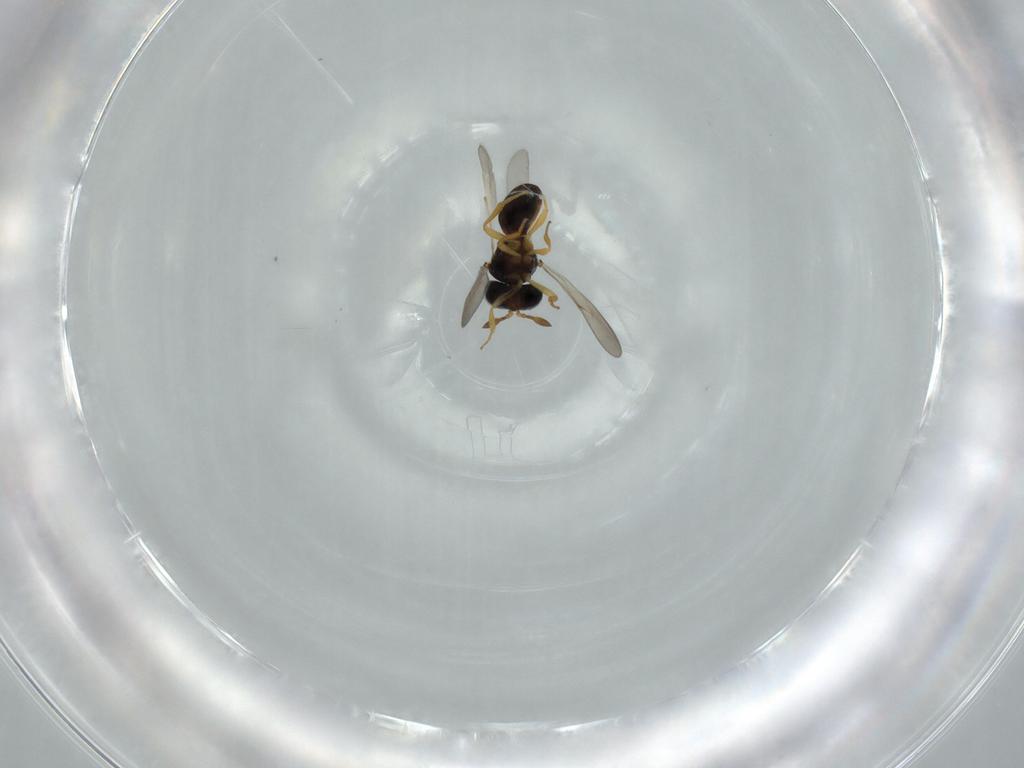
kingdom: Animalia
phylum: Arthropoda
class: Insecta
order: Hymenoptera
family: Scelionidae
